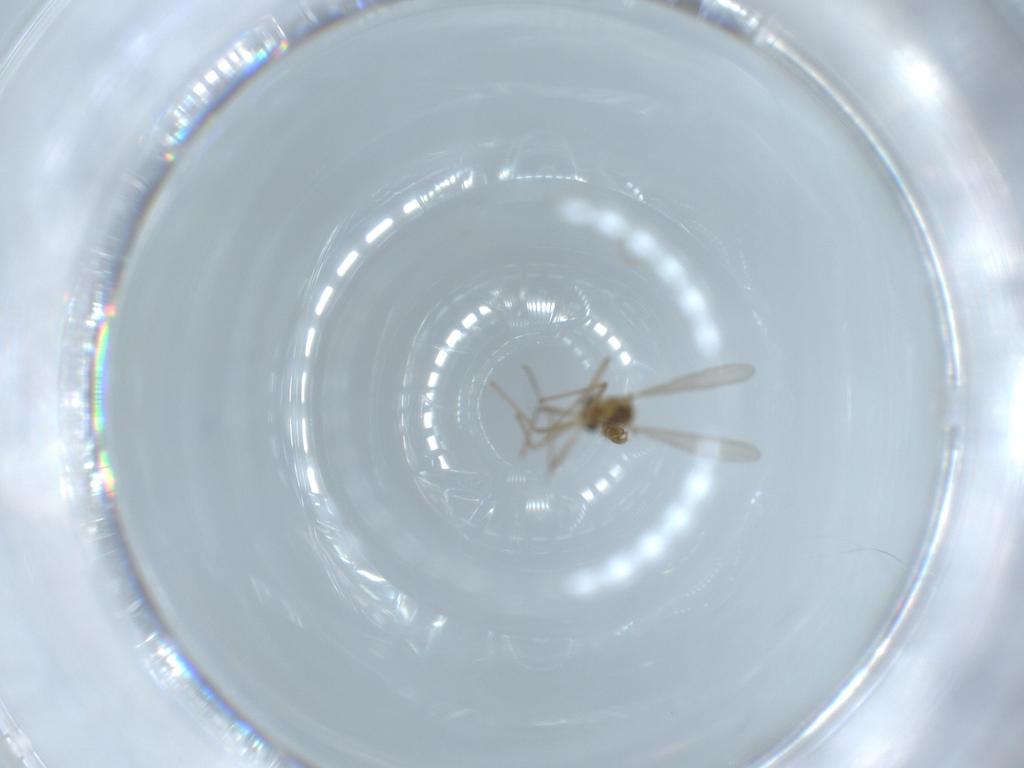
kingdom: Animalia
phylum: Arthropoda
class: Insecta
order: Diptera
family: Chironomidae
